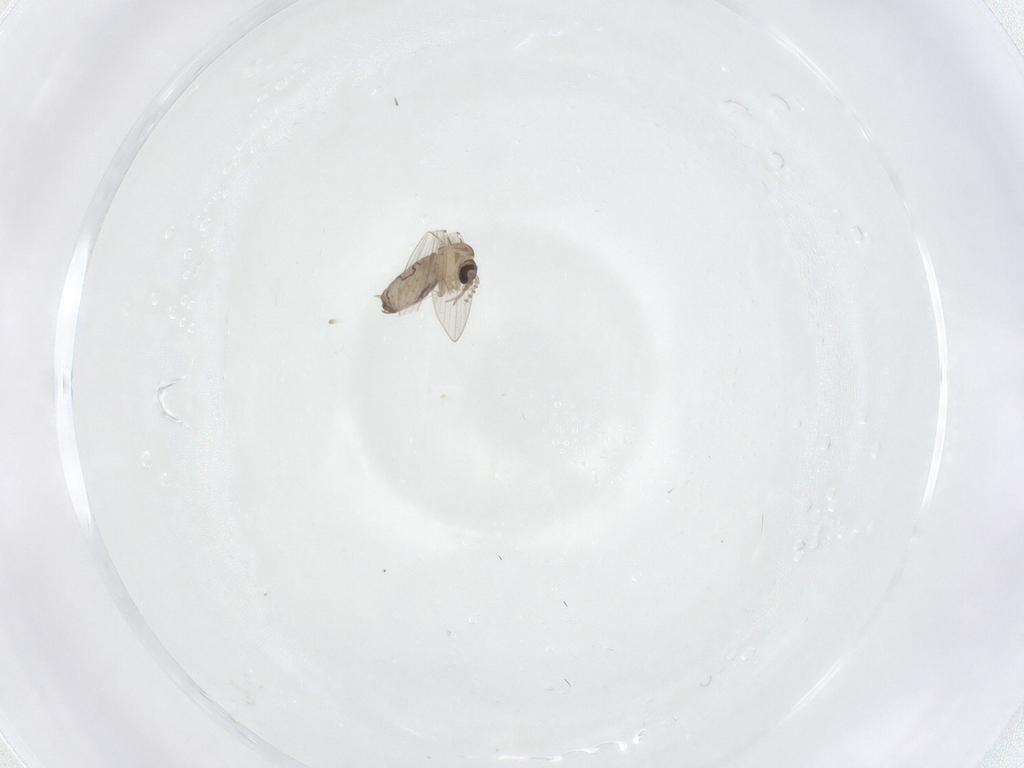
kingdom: Animalia
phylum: Arthropoda
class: Insecta
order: Diptera
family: Psychodidae
